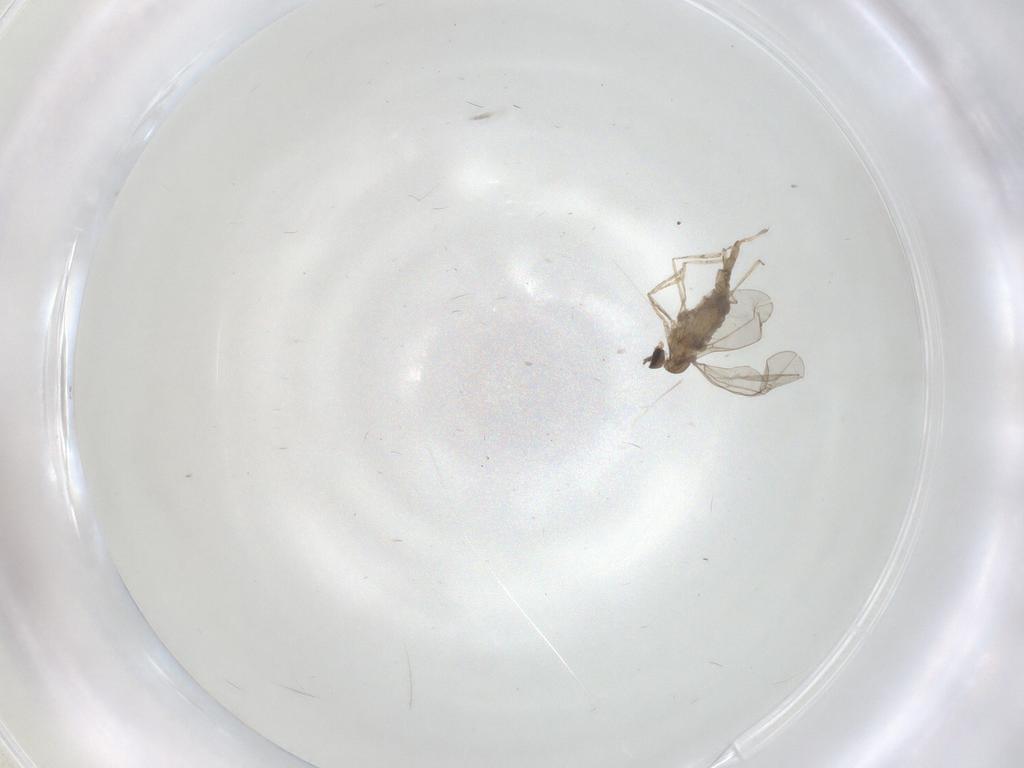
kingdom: Animalia
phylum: Arthropoda
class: Insecta
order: Diptera
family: Cecidomyiidae
